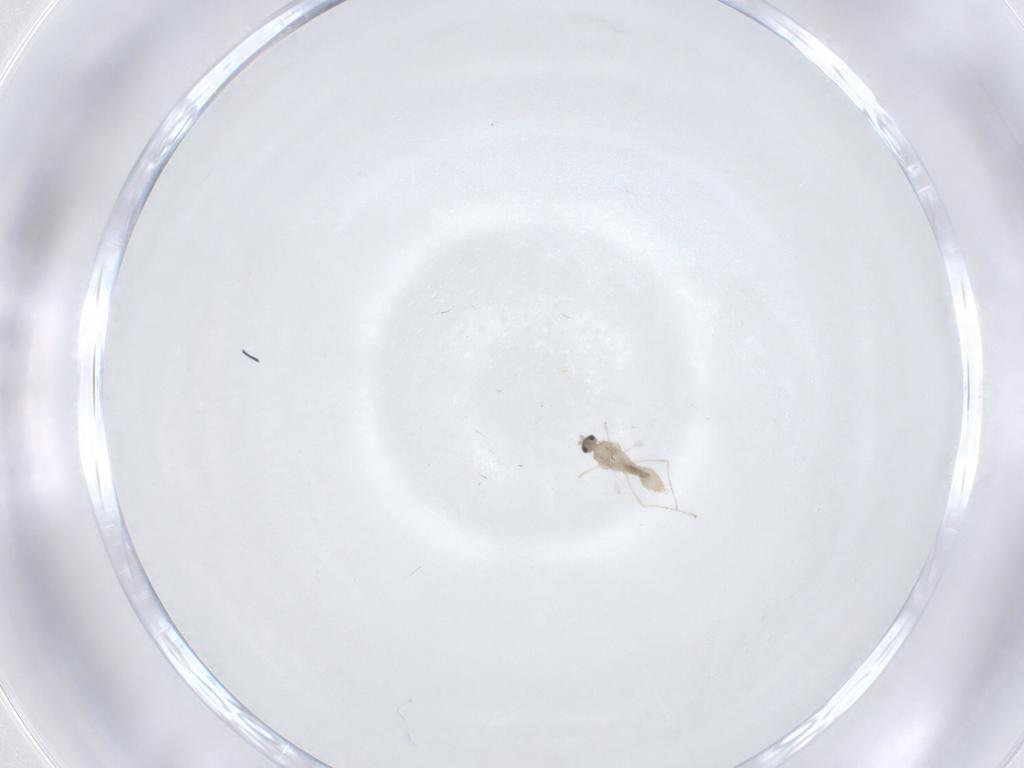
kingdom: Animalia
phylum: Arthropoda
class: Insecta
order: Diptera
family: Cecidomyiidae
